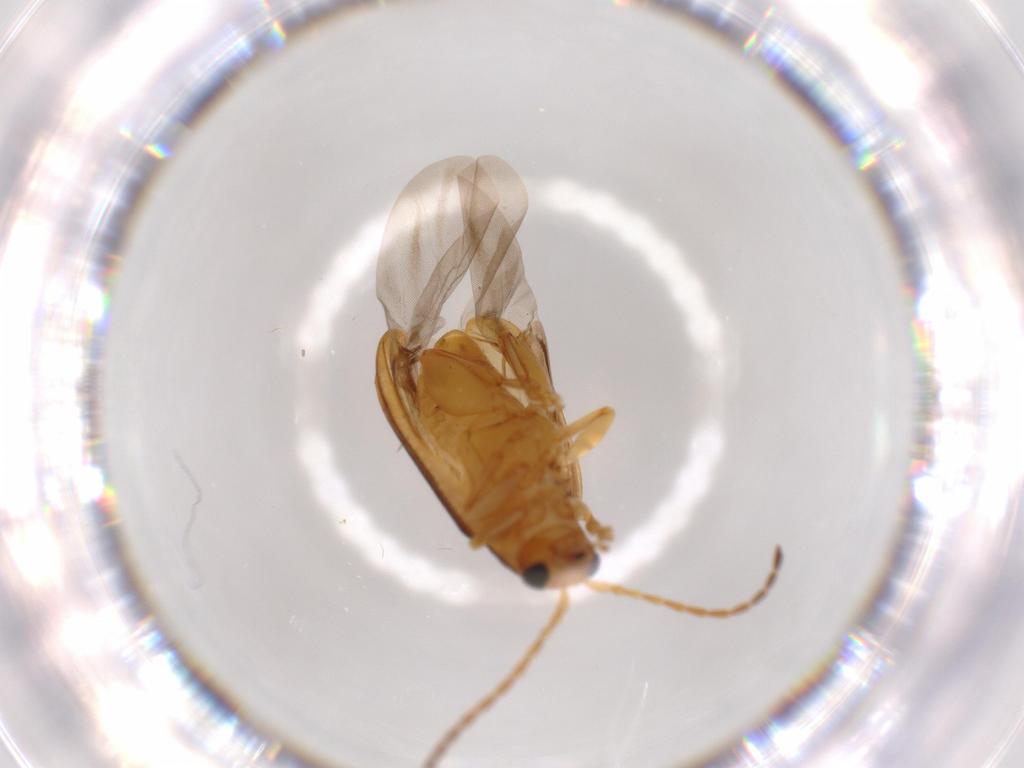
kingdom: Animalia
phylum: Arthropoda
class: Insecta
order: Coleoptera
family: Chrysomelidae
